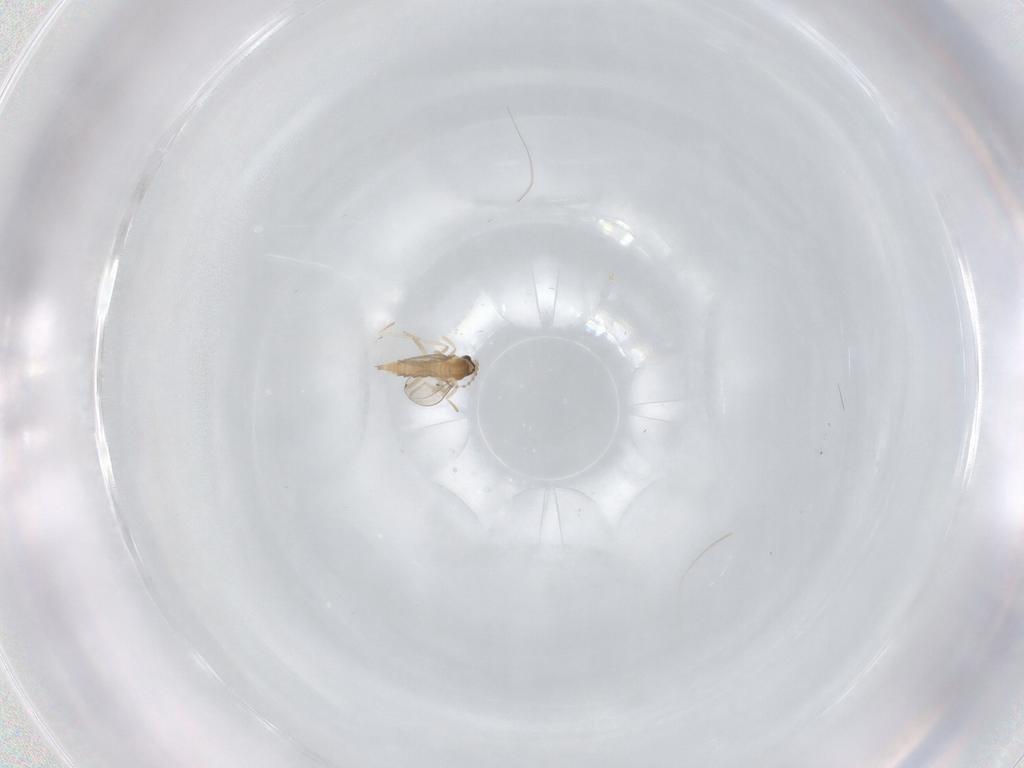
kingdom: Animalia
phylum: Arthropoda
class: Insecta
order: Diptera
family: Cecidomyiidae
